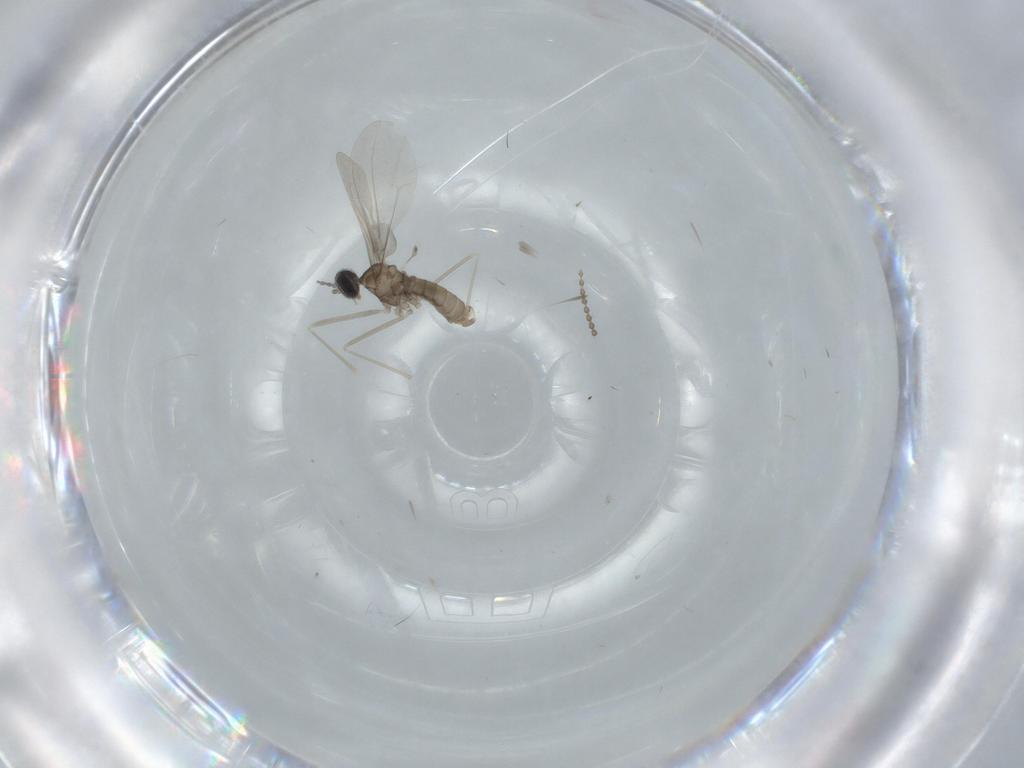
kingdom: Animalia
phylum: Arthropoda
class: Insecta
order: Diptera
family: Cecidomyiidae
